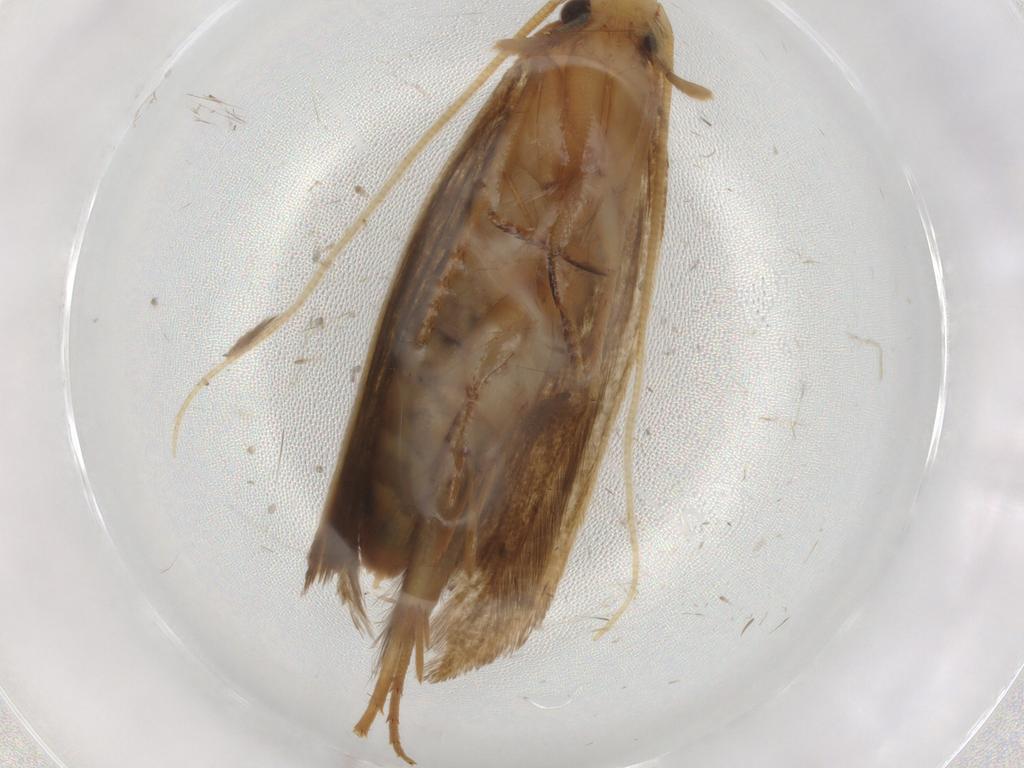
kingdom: Animalia
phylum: Arthropoda
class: Insecta
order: Lepidoptera
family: Tineidae
